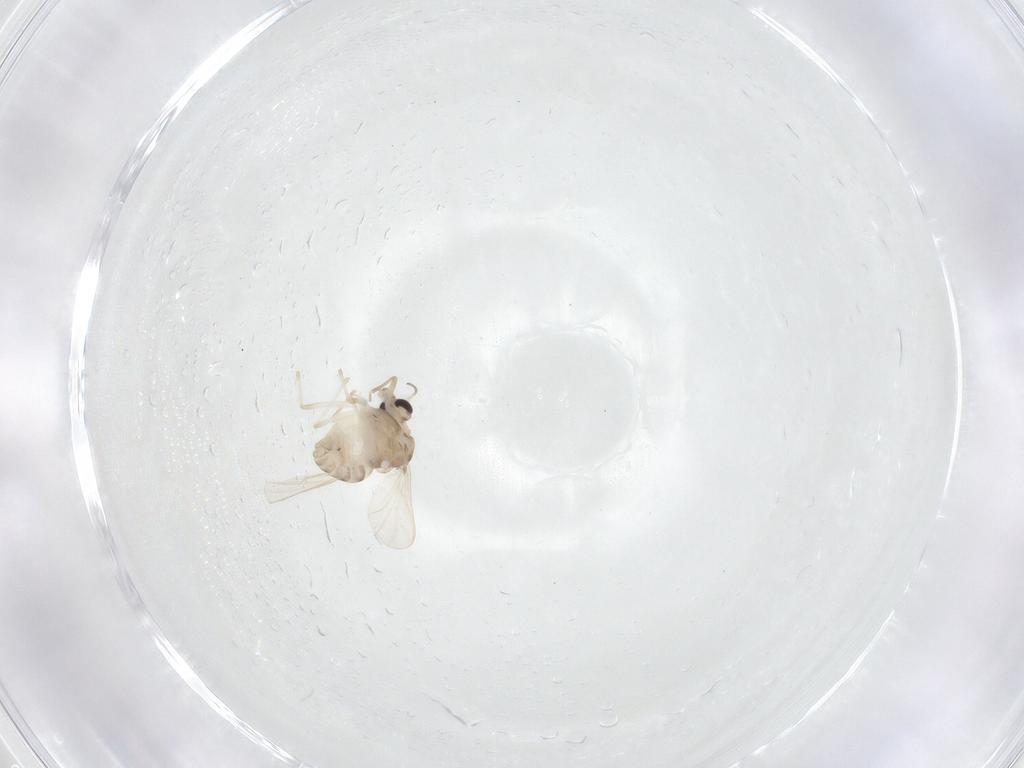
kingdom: Animalia
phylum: Arthropoda
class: Insecta
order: Diptera
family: Chironomidae
